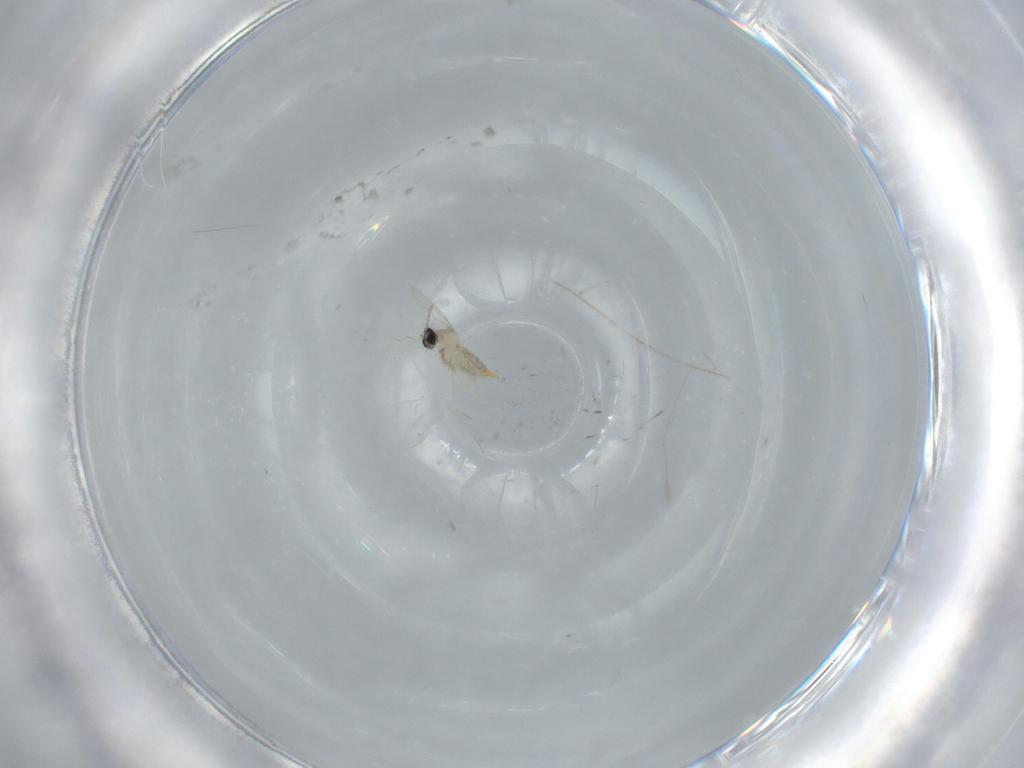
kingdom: Animalia
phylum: Arthropoda
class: Insecta
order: Diptera
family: Cecidomyiidae
